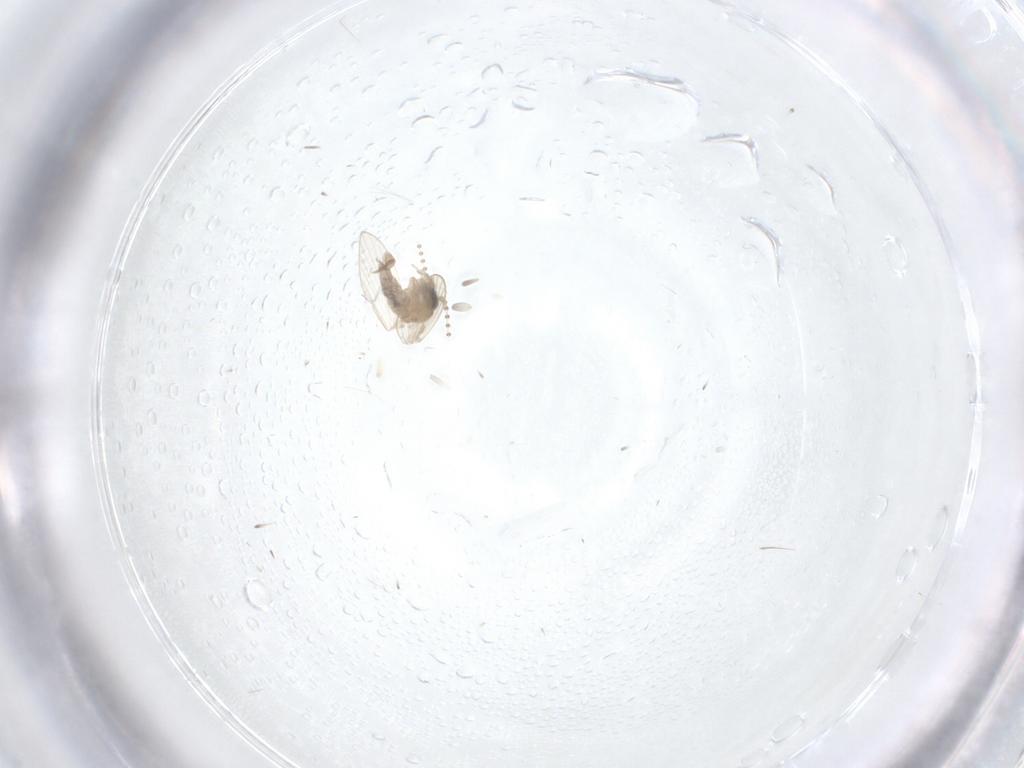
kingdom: Animalia
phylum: Arthropoda
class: Insecta
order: Diptera
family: Psychodidae
